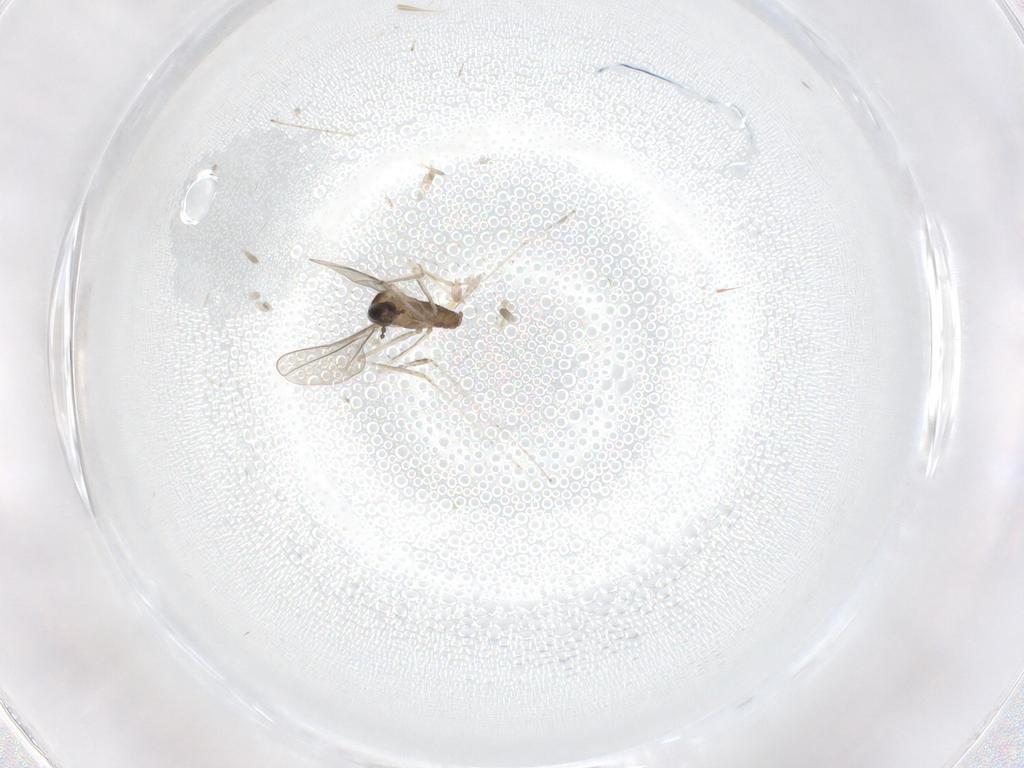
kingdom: Animalia
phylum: Arthropoda
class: Insecta
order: Diptera
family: Cecidomyiidae
